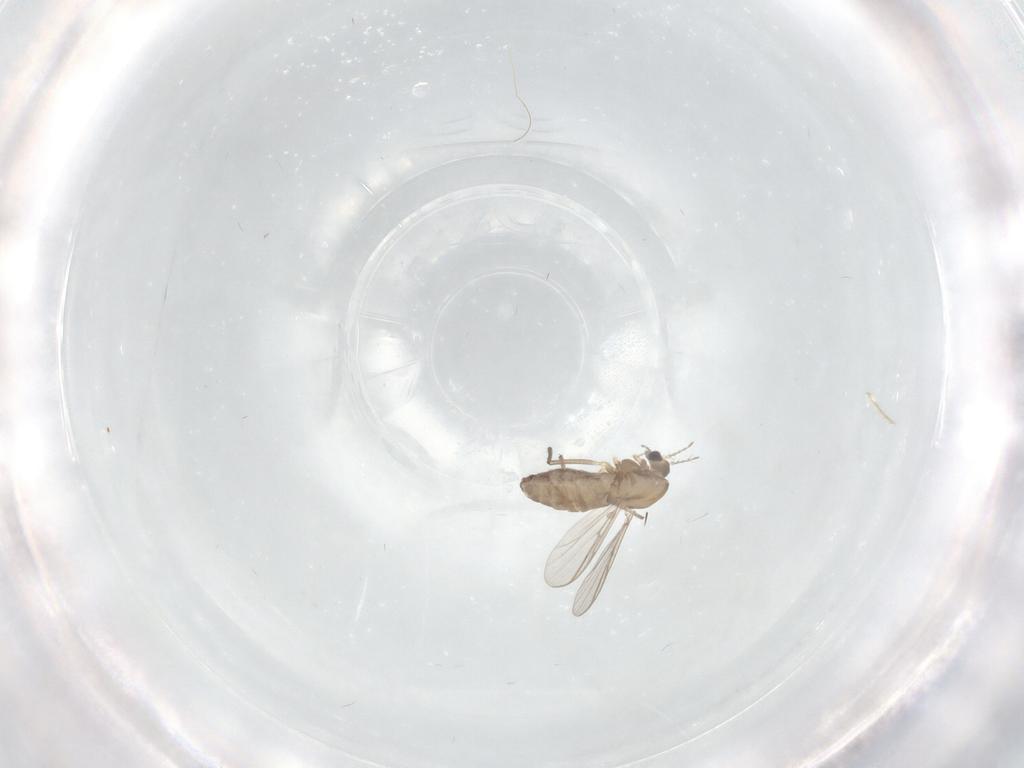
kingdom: Animalia
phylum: Arthropoda
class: Insecta
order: Diptera
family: Chironomidae
